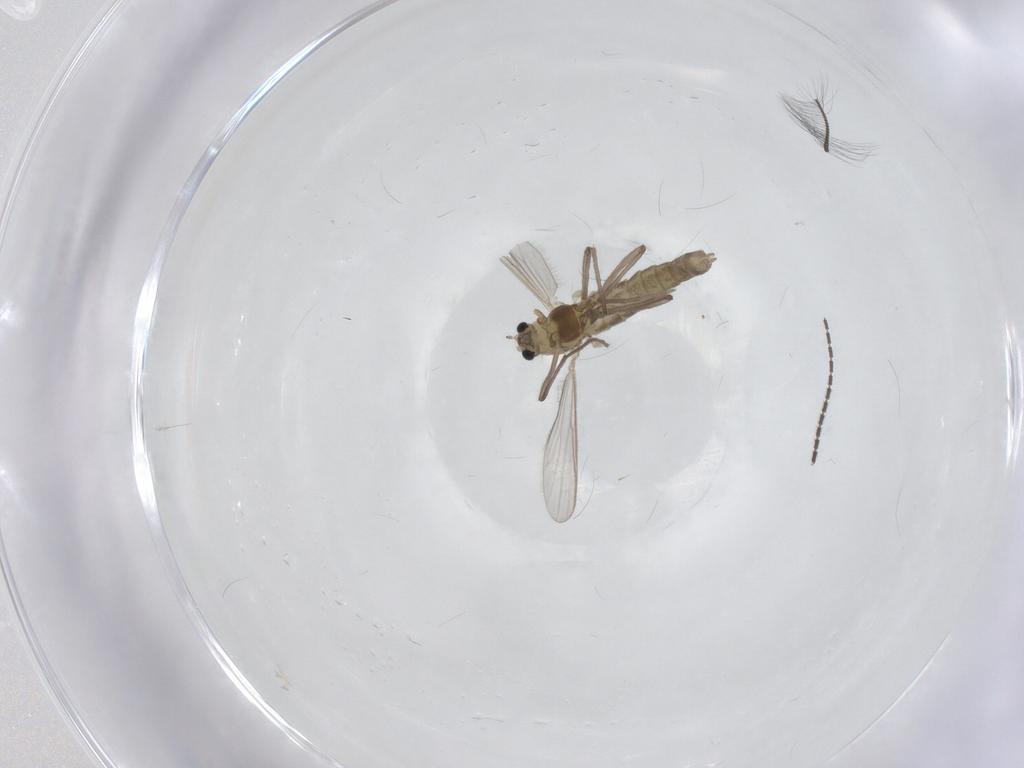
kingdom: Animalia
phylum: Arthropoda
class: Insecta
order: Diptera
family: Chironomidae
